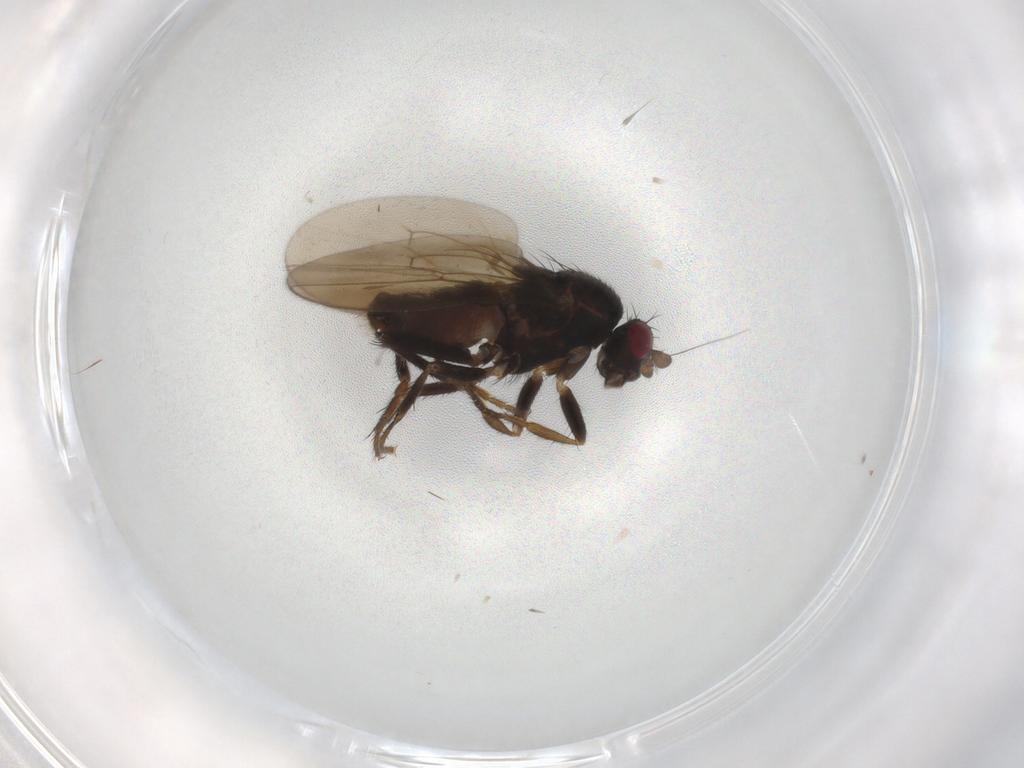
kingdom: Animalia
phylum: Arthropoda
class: Insecta
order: Diptera
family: Sphaeroceridae
